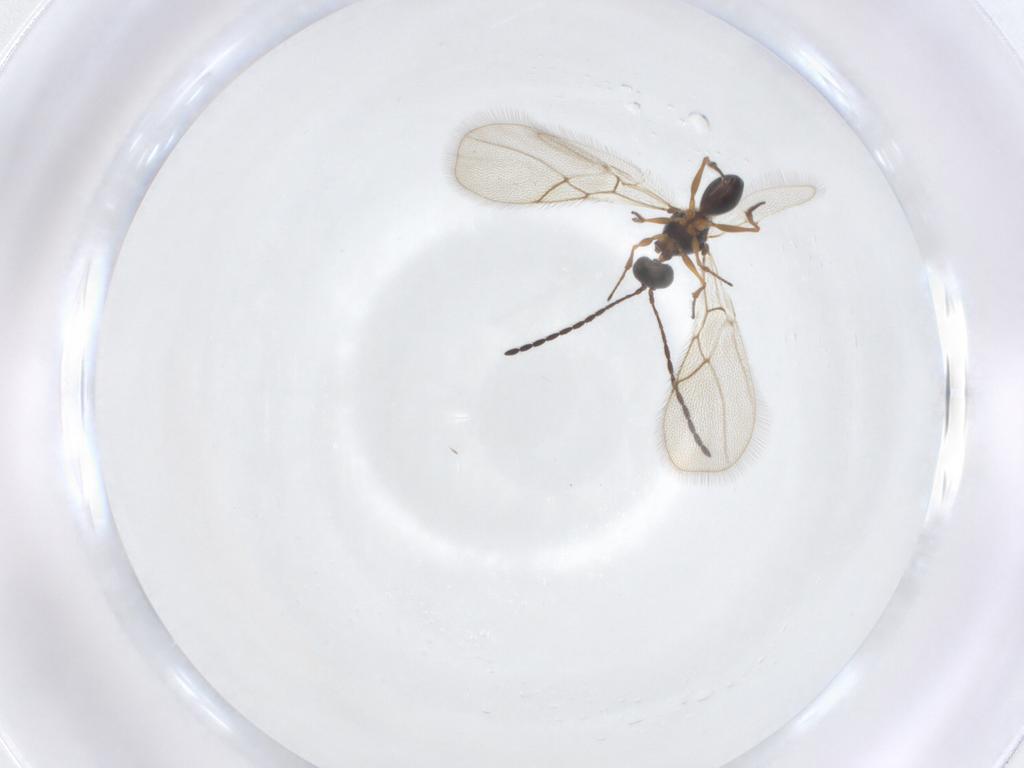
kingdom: Animalia
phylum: Arthropoda
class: Insecta
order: Hymenoptera
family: Figitidae
